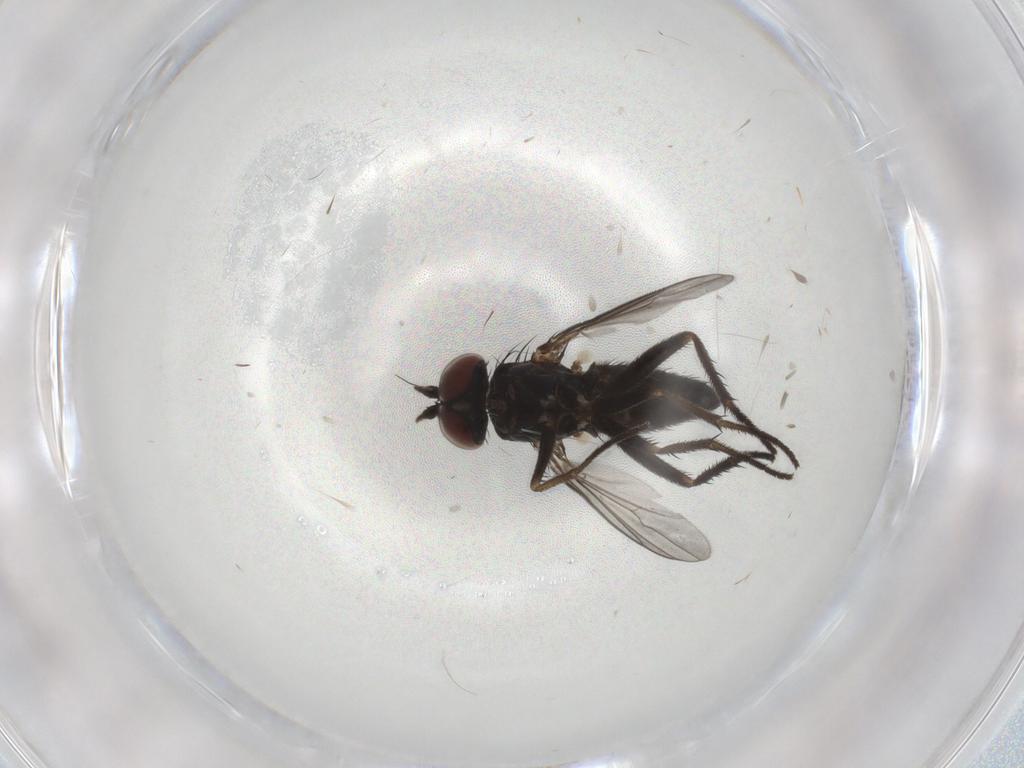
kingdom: Animalia
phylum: Arthropoda
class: Insecta
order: Diptera
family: Dolichopodidae
